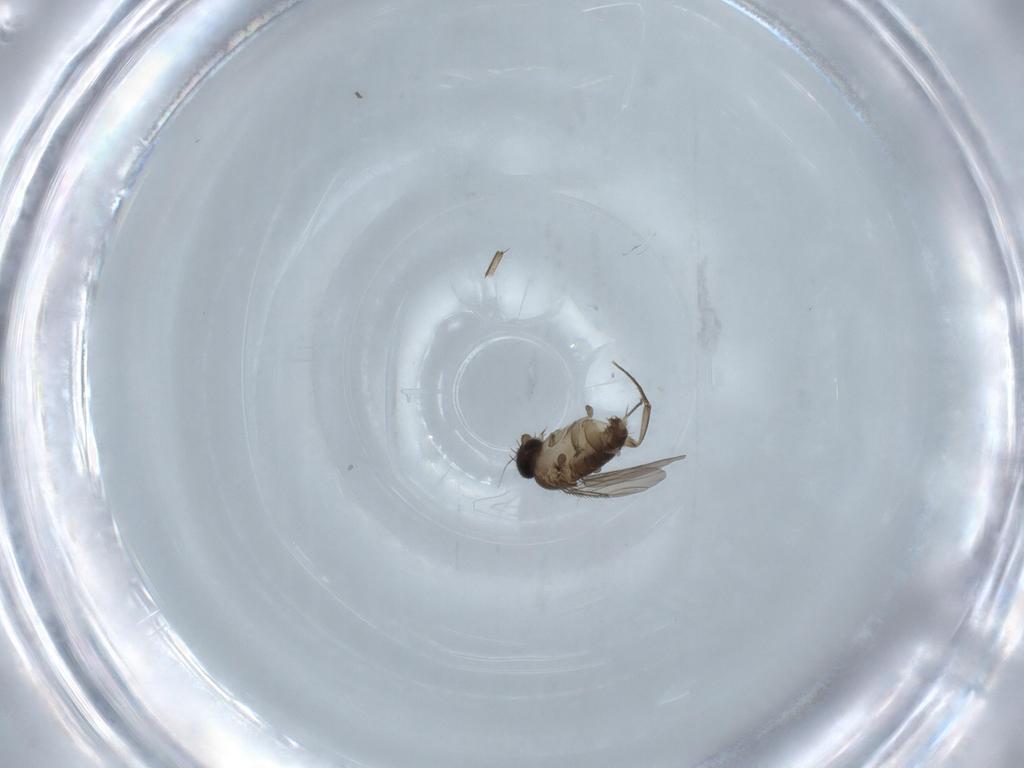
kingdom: Animalia
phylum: Arthropoda
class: Insecta
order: Diptera
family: Phoridae
